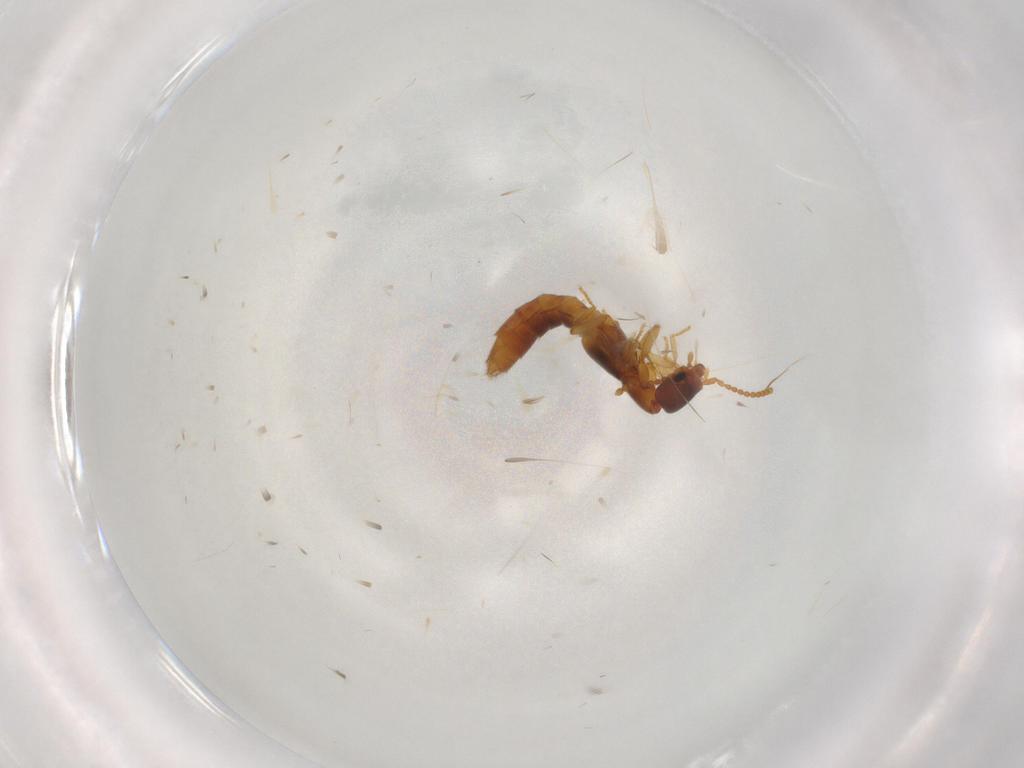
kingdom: Animalia
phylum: Arthropoda
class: Insecta
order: Coleoptera
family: Staphylinidae
